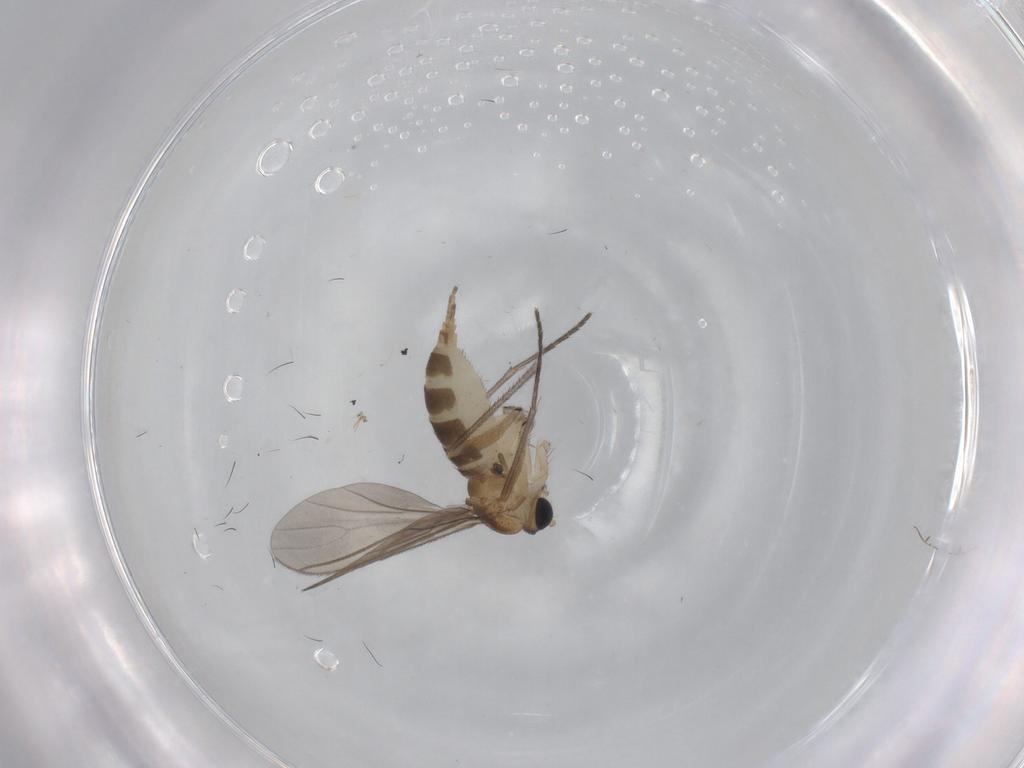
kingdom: Animalia
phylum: Arthropoda
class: Insecta
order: Diptera
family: Sciaridae
